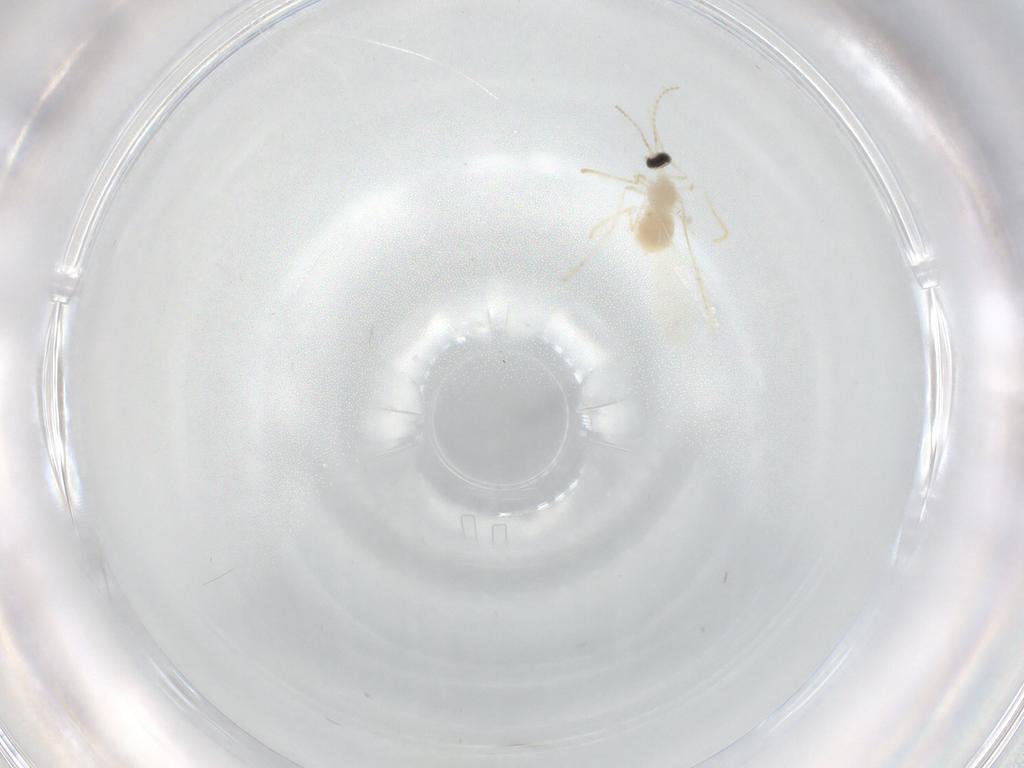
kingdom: Animalia
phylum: Arthropoda
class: Insecta
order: Diptera
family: Cecidomyiidae
